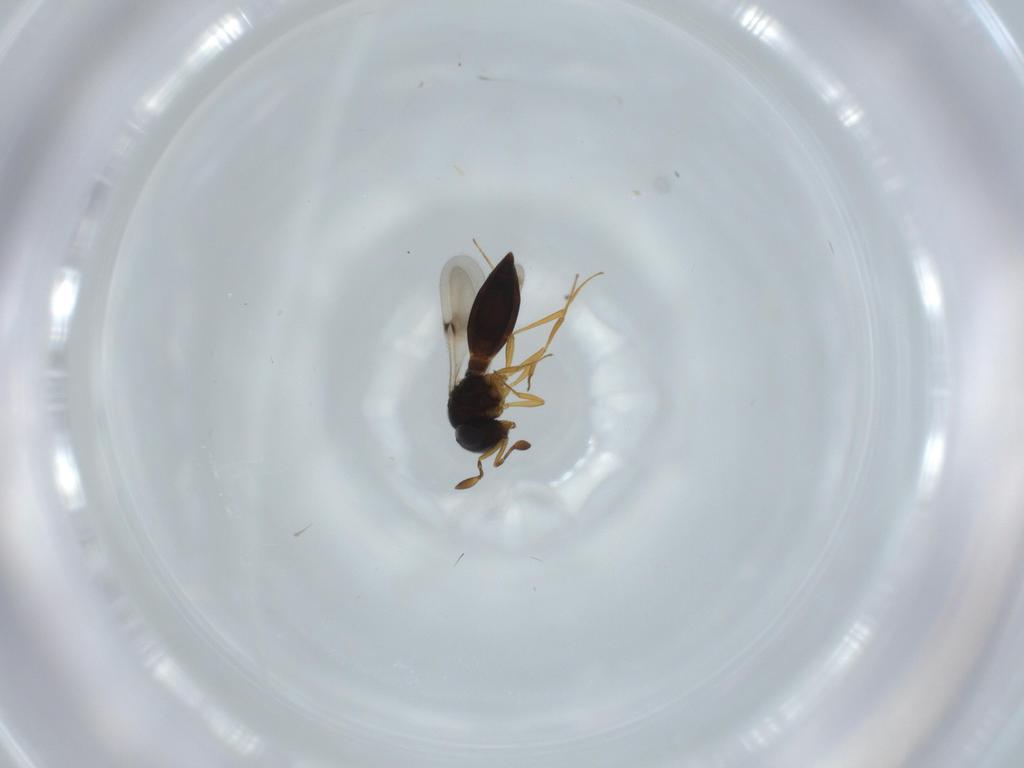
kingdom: Animalia
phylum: Arthropoda
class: Insecta
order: Hymenoptera
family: Scelionidae
